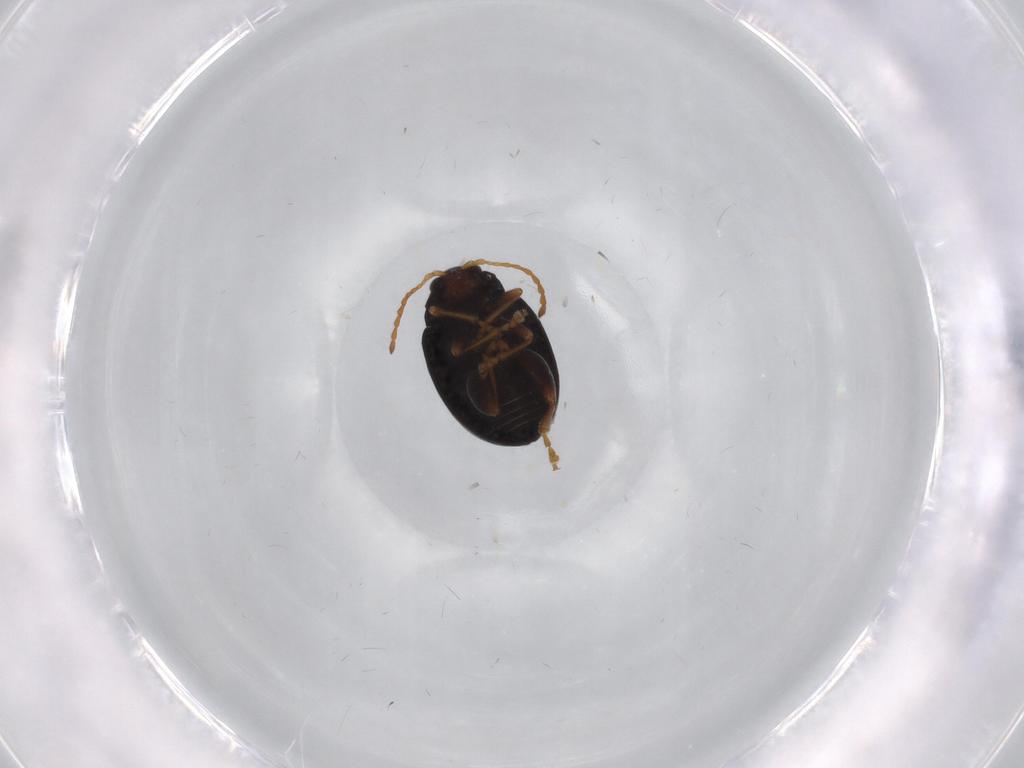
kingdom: Animalia
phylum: Arthropoda
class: Insecta
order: Coleoptera
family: Chrysomelidae
